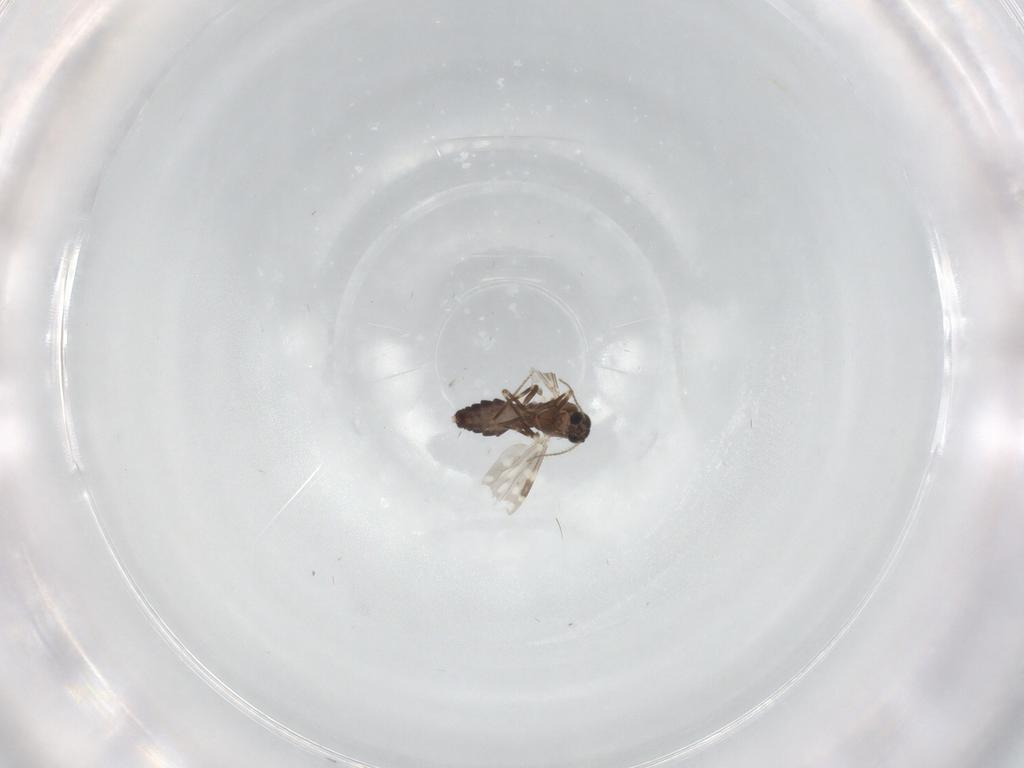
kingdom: Animalia
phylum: Arthropoda
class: Insecta
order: Diptera
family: Ceratopogonidae
